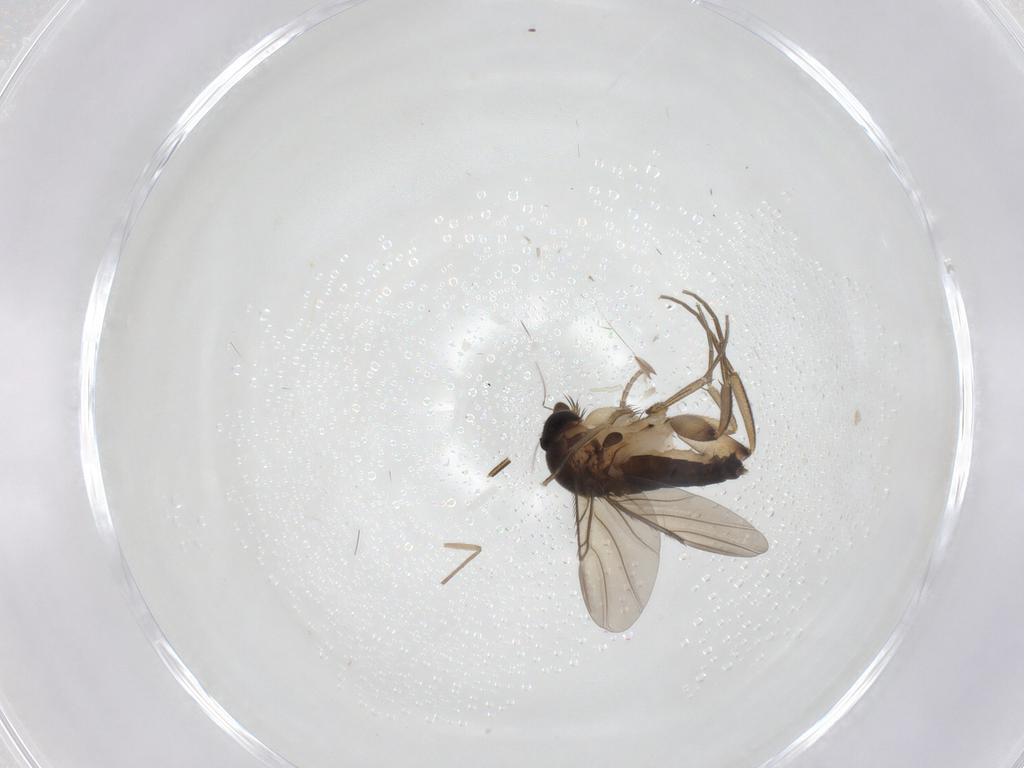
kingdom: Animalia
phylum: Arthropoda
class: Insecta
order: Diptera
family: Phoridae
